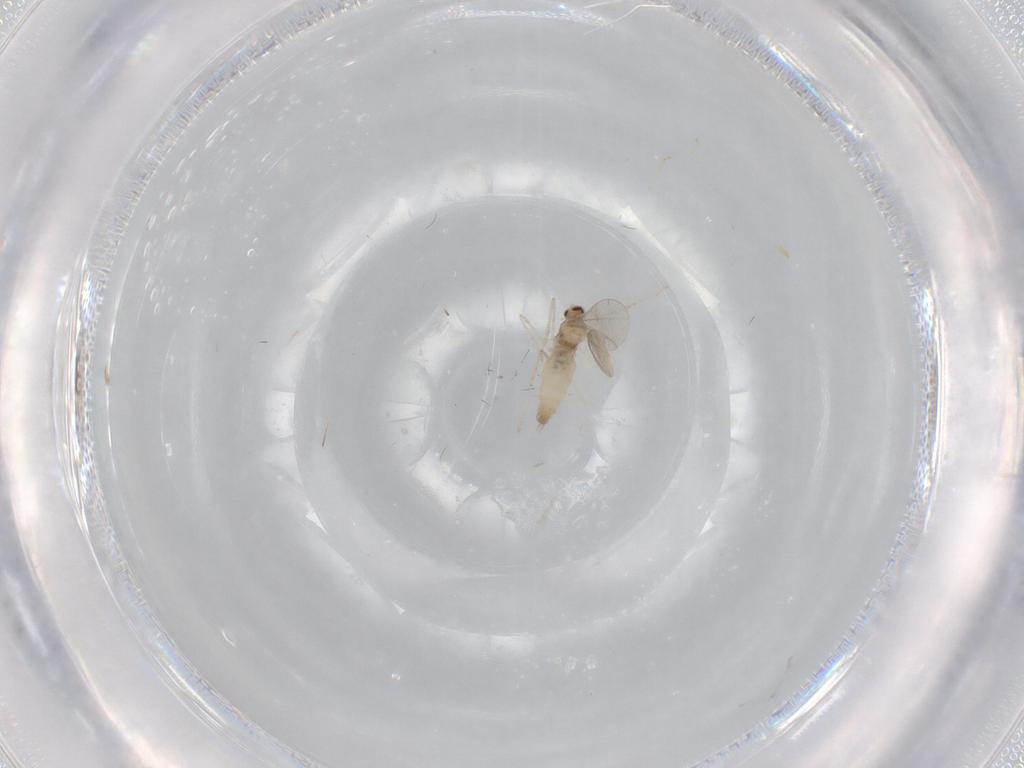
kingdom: Animalia
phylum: Arthropoda
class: Insecta
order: Diptera
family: Cecidomyiidae
